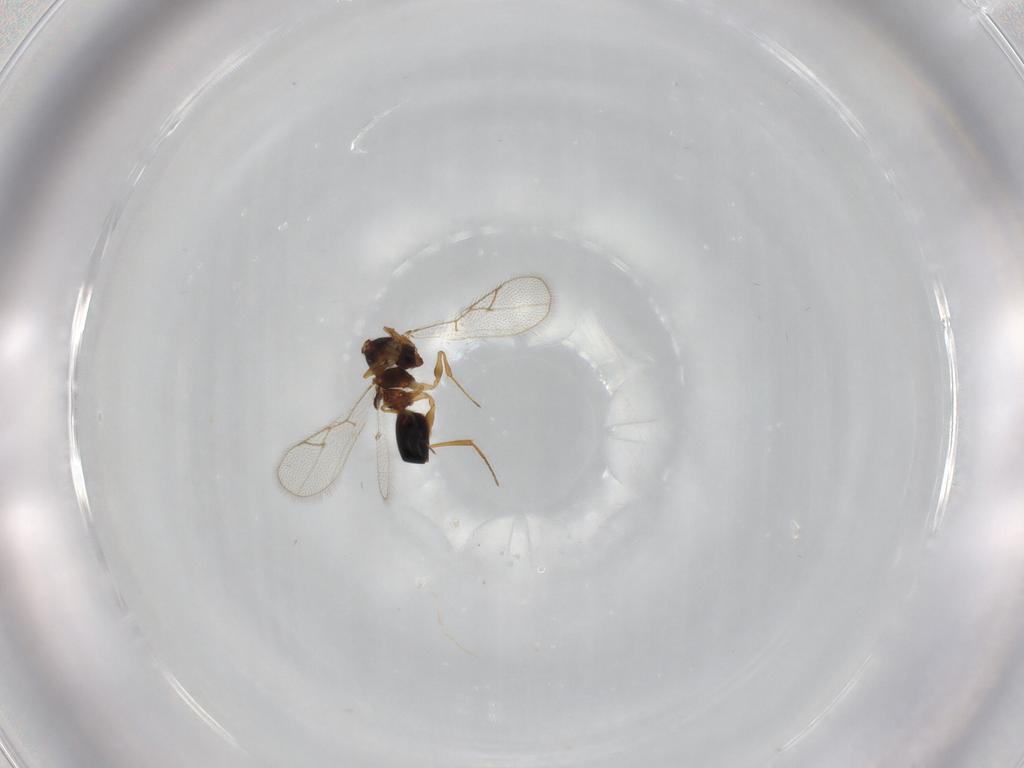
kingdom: Animalia
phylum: Arthropoda
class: Insecta
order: Hymenoptera
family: Figitidae
